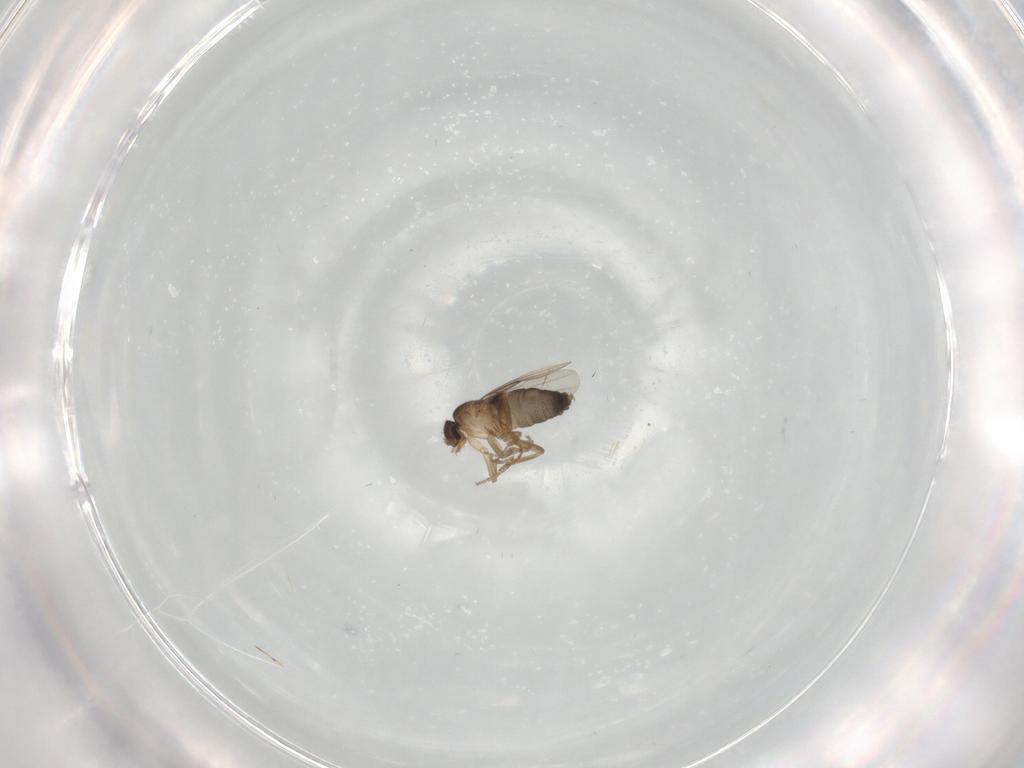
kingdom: Animalia
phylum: Arthropoda
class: Insecta
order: Diptera
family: Phoridae
